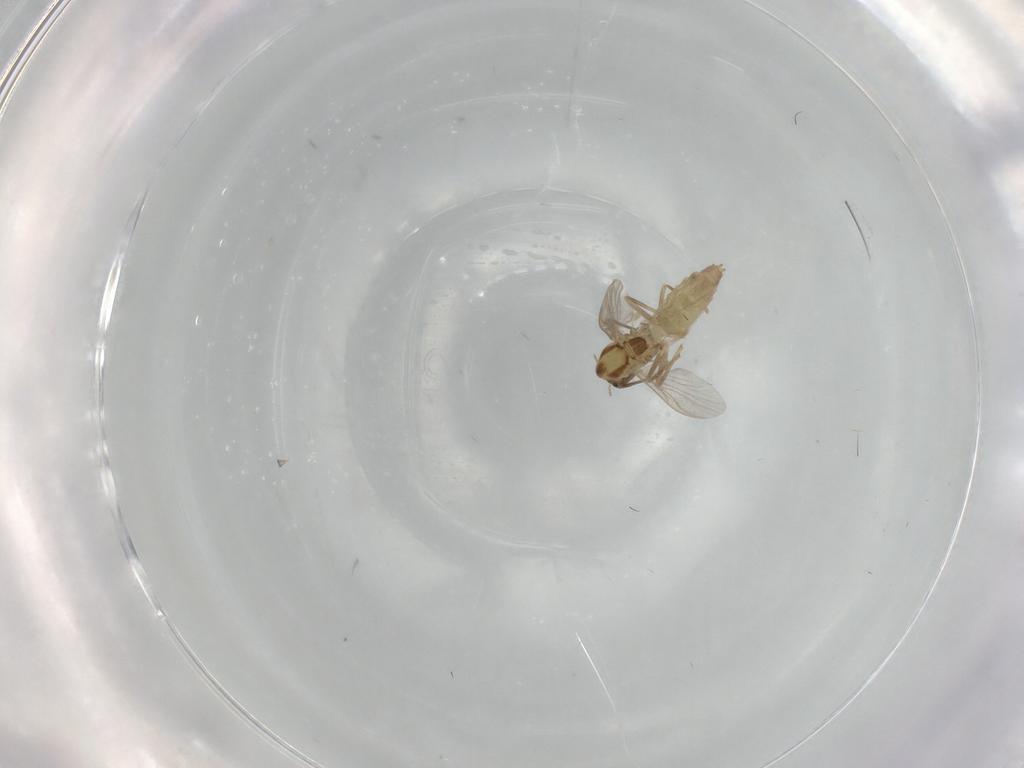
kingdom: Animalia
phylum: Arthropoda
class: Insecta
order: Diptera
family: Chironomidae
